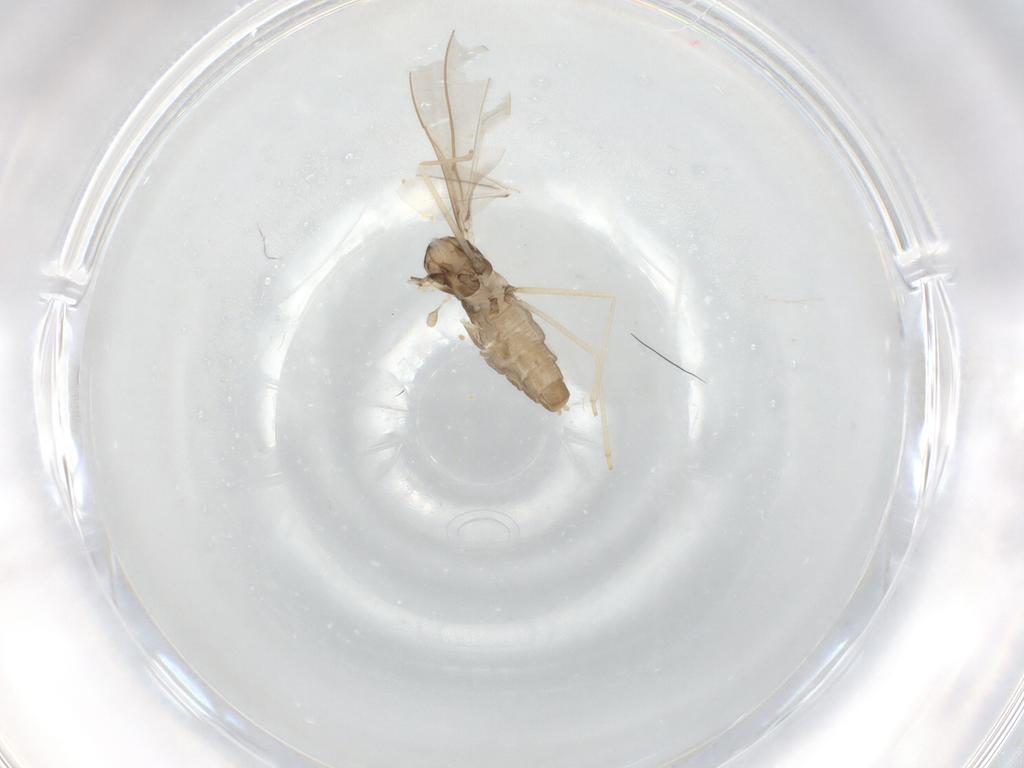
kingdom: Animalia
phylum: Arthropoda
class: Insecta
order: Diptera
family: Cecidomyiidae
